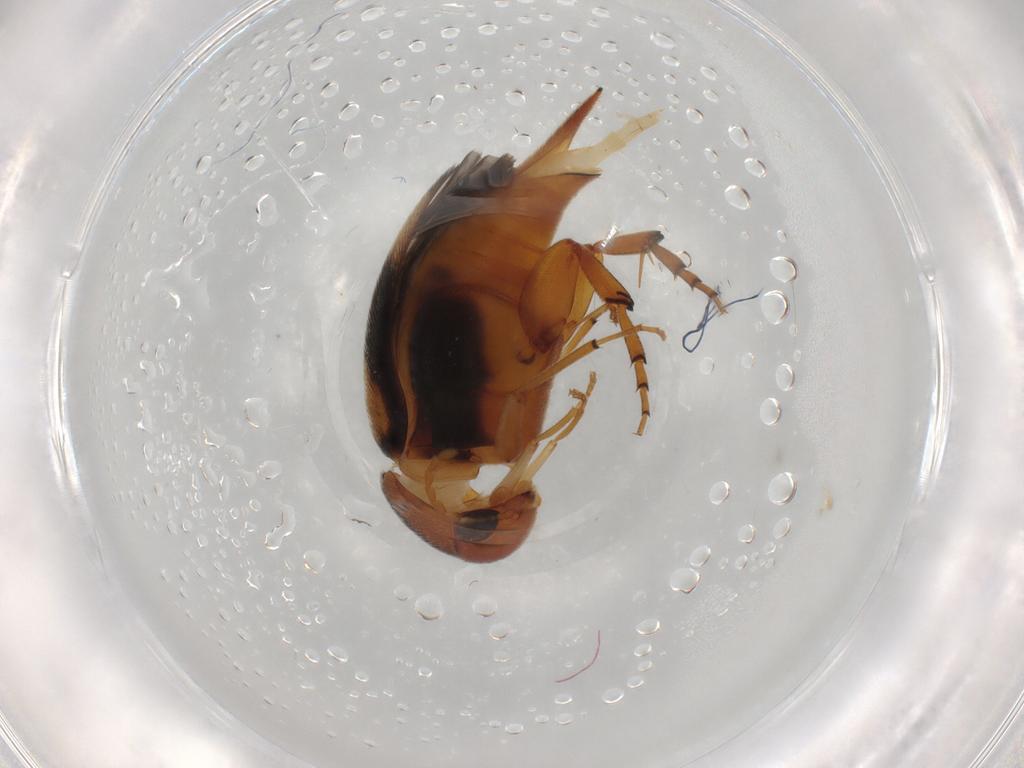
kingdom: Animalia
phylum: Arthropoda
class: Insecta
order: Coleoptera
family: Mordellidae
